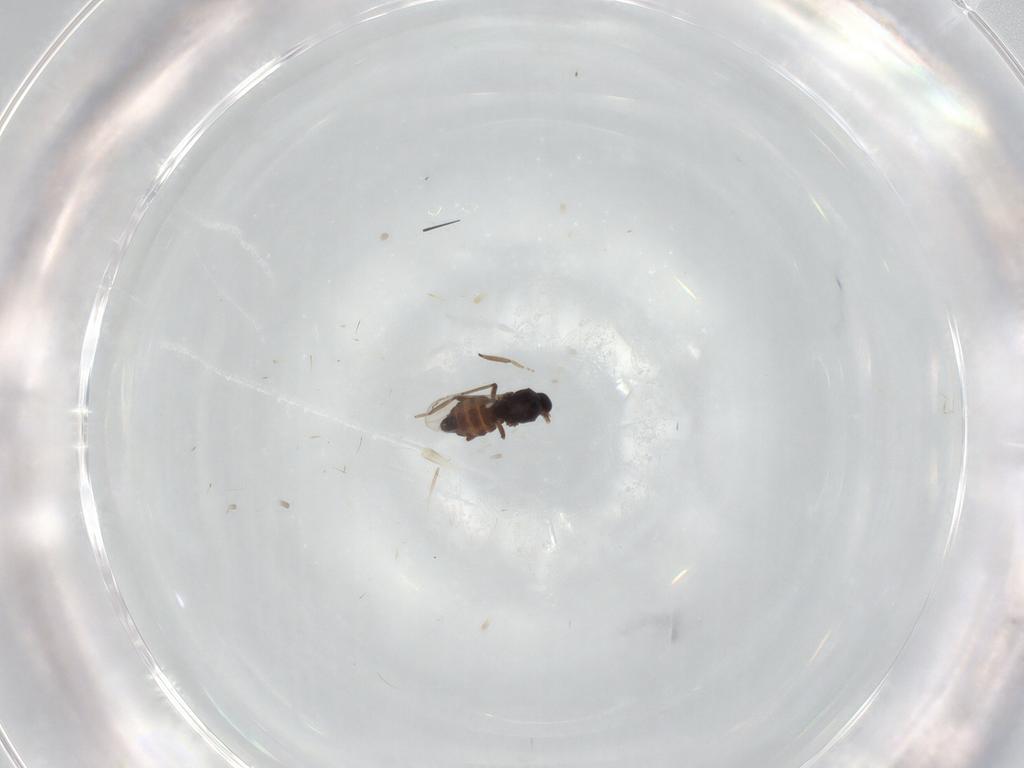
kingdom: Animalia
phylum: Arthropoda
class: Insecta
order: Diptera
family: Ceratopogonidae
